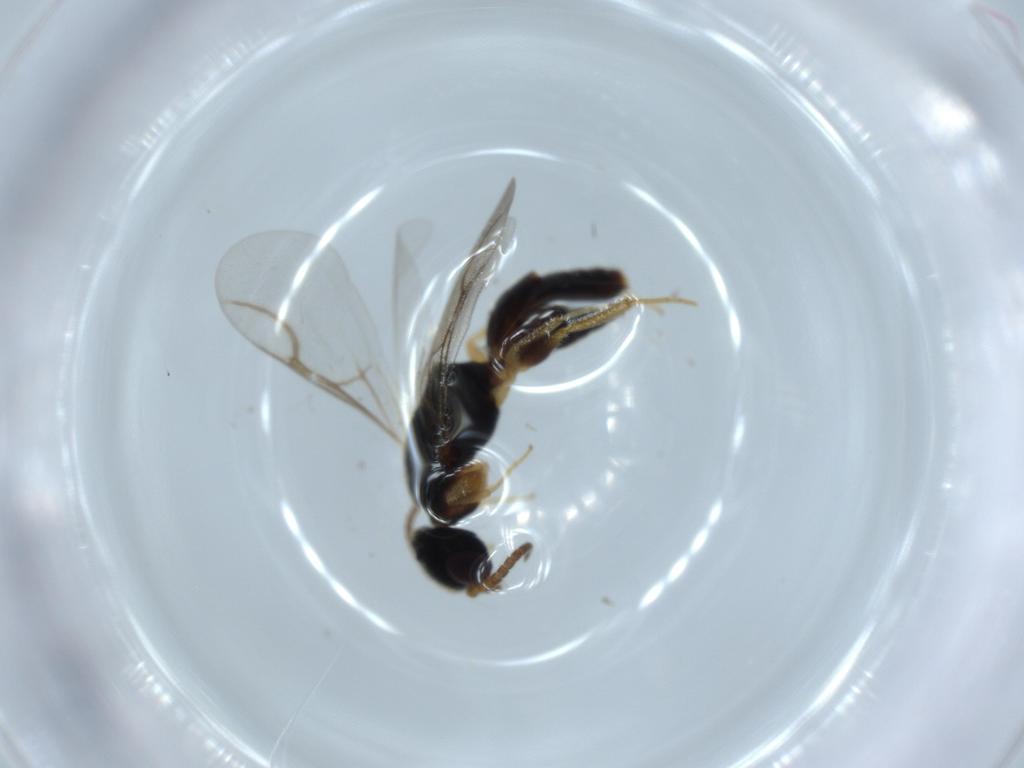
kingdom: Animalia
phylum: Arthropoda
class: Insecta
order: Hymenoptera
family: Bethylidae
